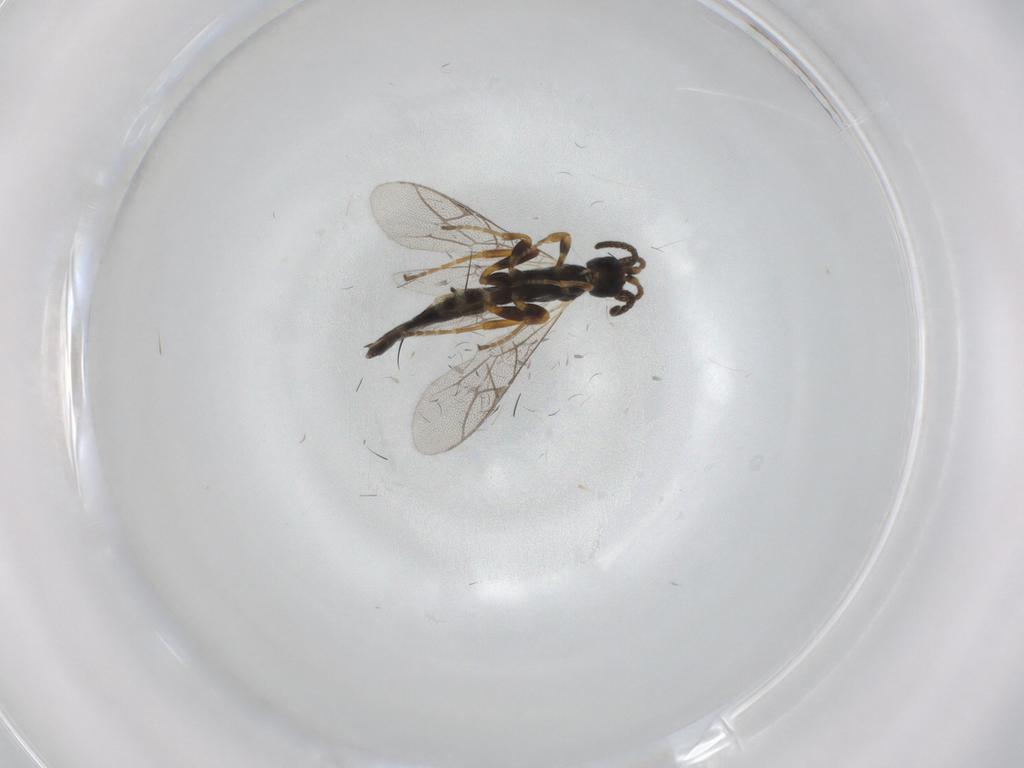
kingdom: Animalia
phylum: Arthropoda
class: Insecta
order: Hymenoptera
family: Ichneumonidae
